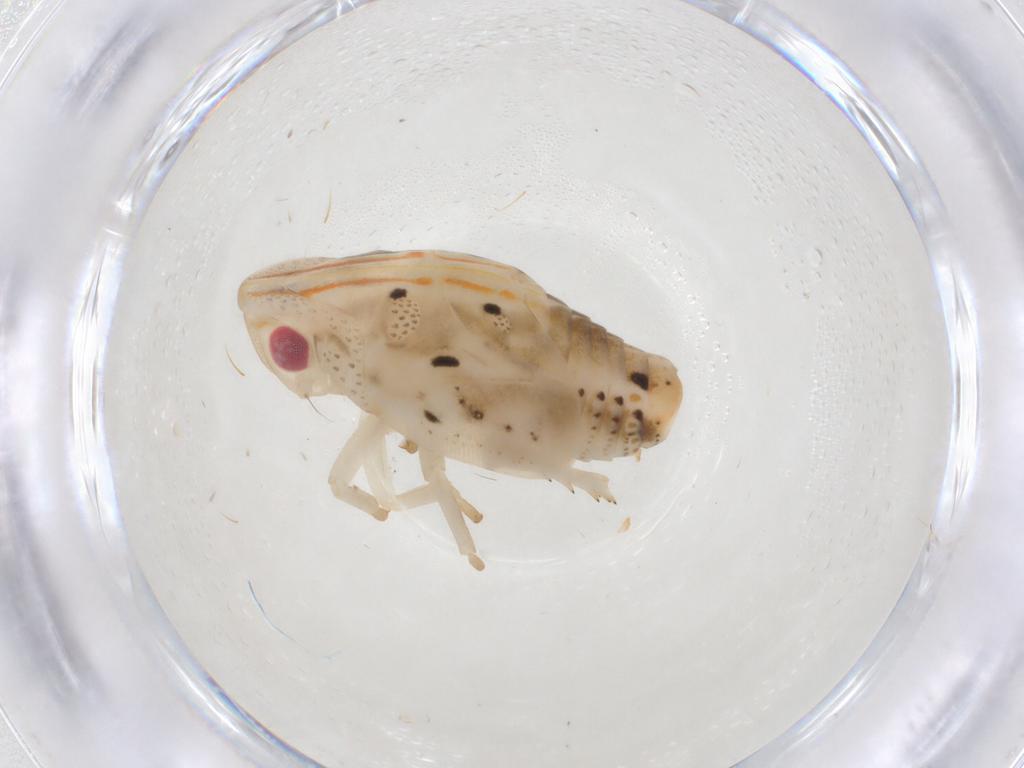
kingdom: Animalia
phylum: Arthropoda
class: Insecta
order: Hemiptera
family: Flatidae
